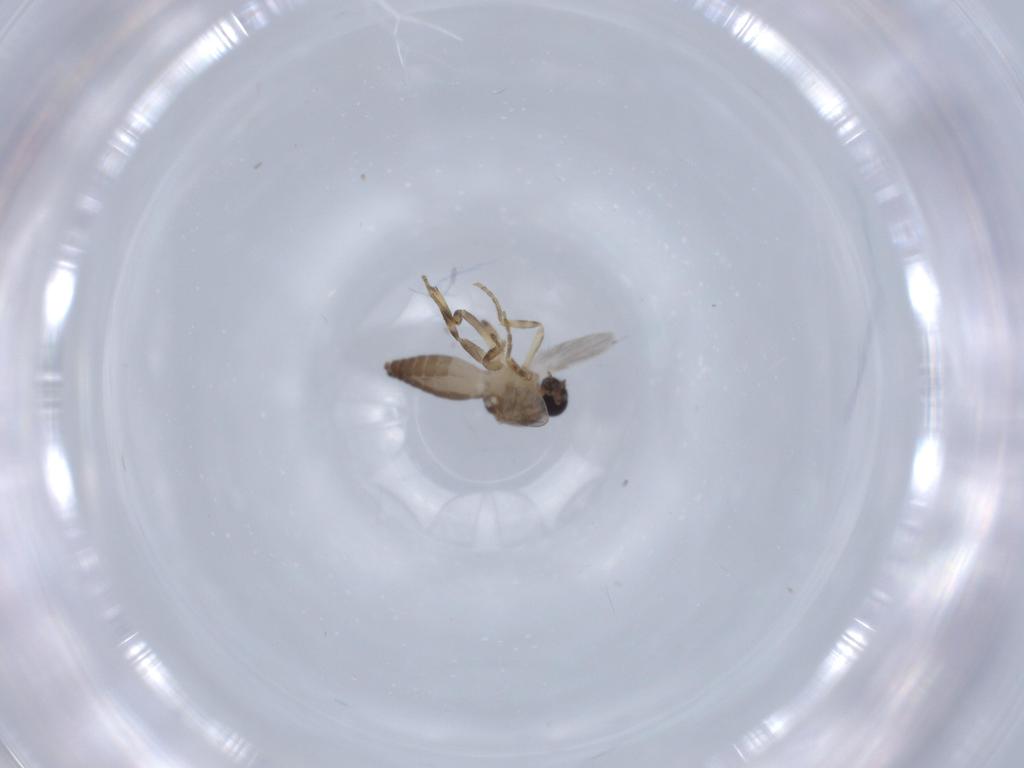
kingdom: Animalia
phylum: Arthropoda
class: Insecta
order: Diptera
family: Ceratopogonidae
